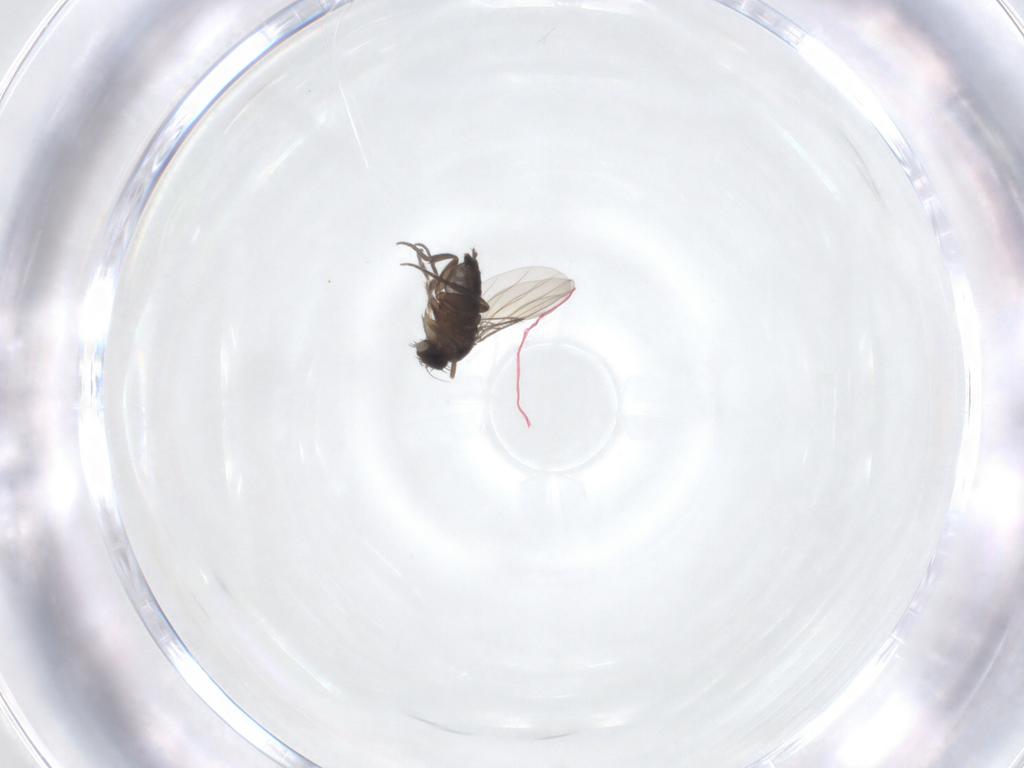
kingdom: Animalia
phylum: Arthropoda
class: Insecta
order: Diptera
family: Phoridae
